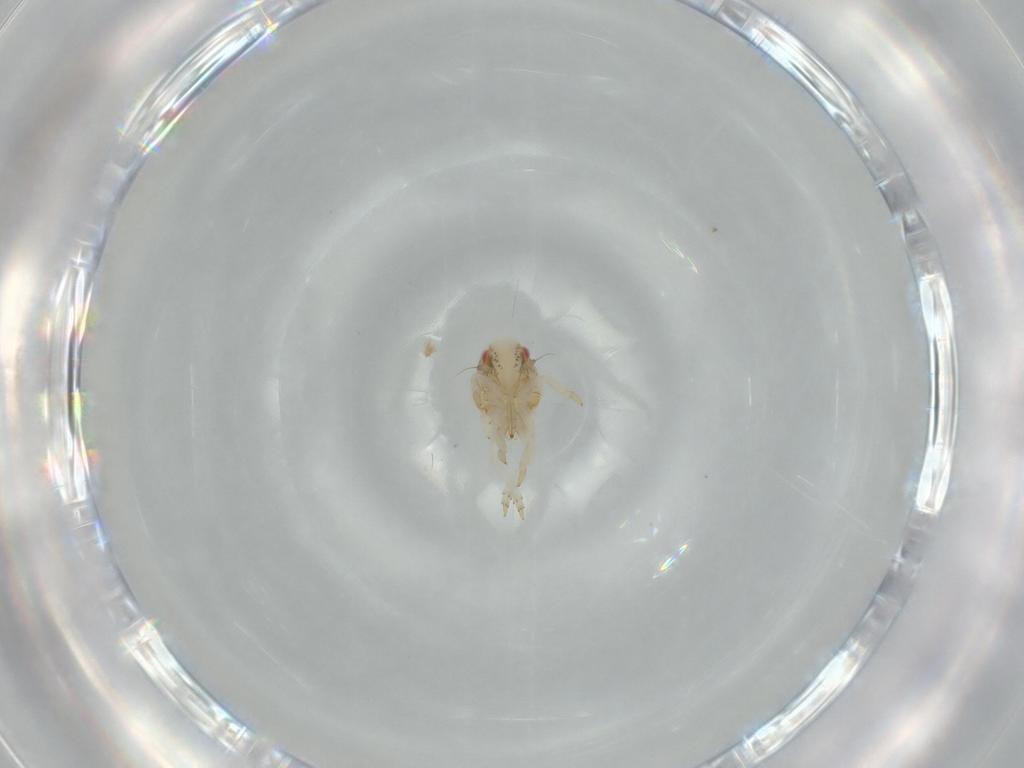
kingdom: Animalia
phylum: Arthropoda
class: Insecta
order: Hemiptera
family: Acanaloniidae
